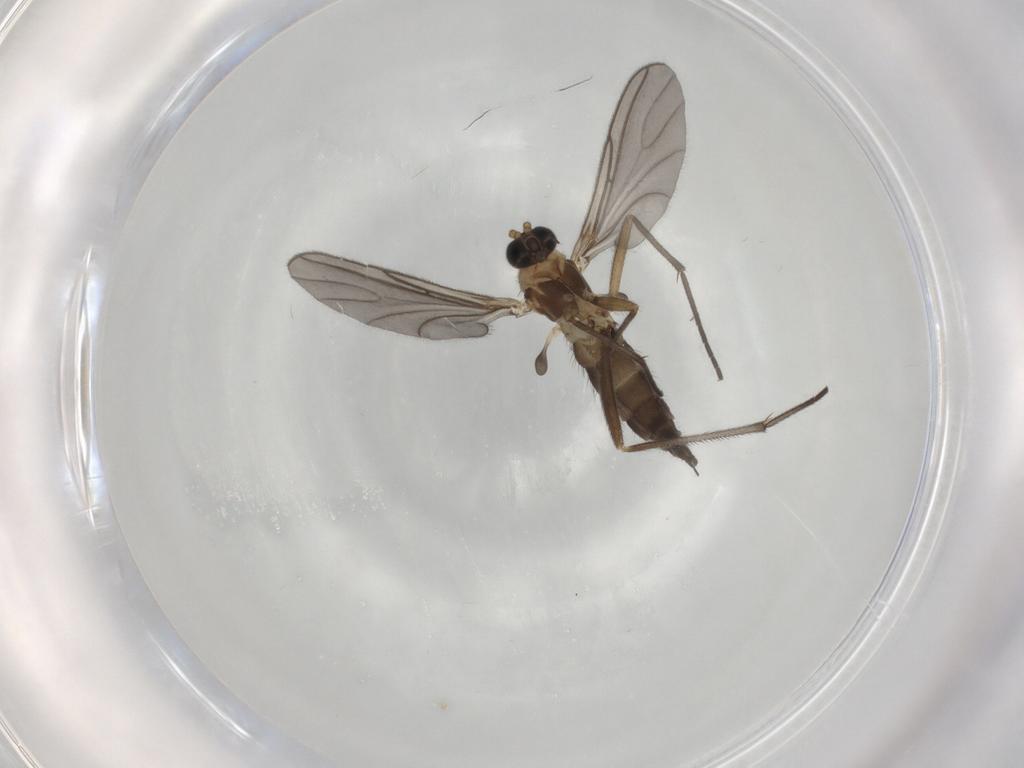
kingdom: Animalia
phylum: Arthropoda
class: Insecta
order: Diptera
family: Sciaridae
